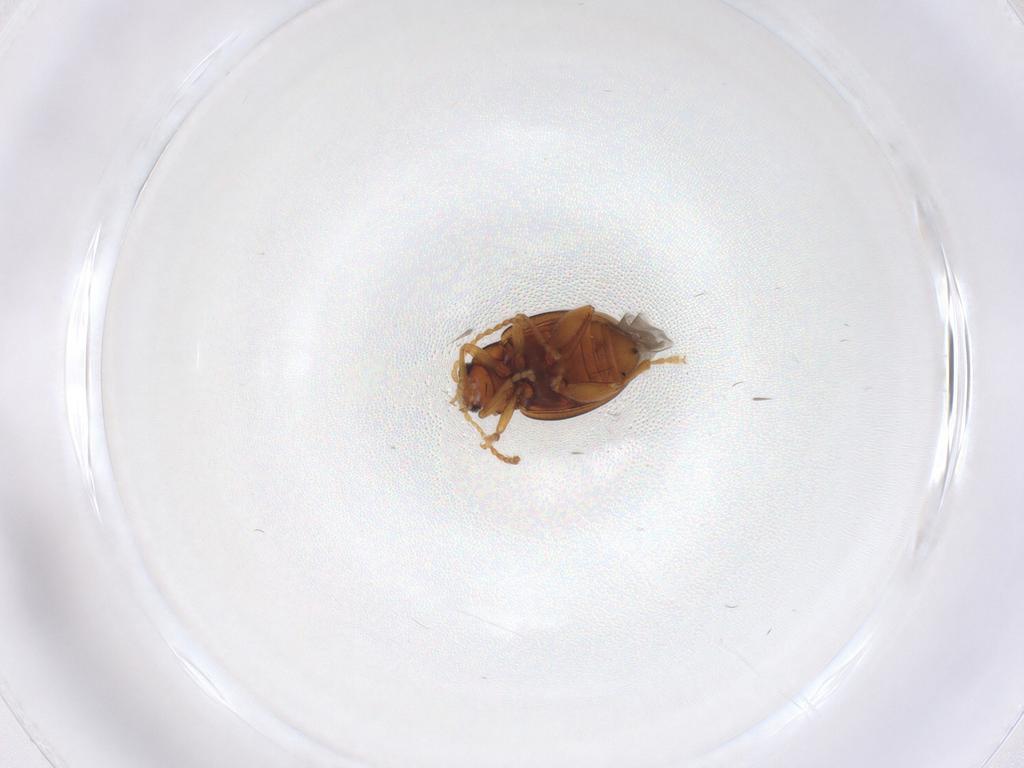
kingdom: Animalia
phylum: Arthropoda
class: Insecta
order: Coleoptera
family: Chrysomelidae
